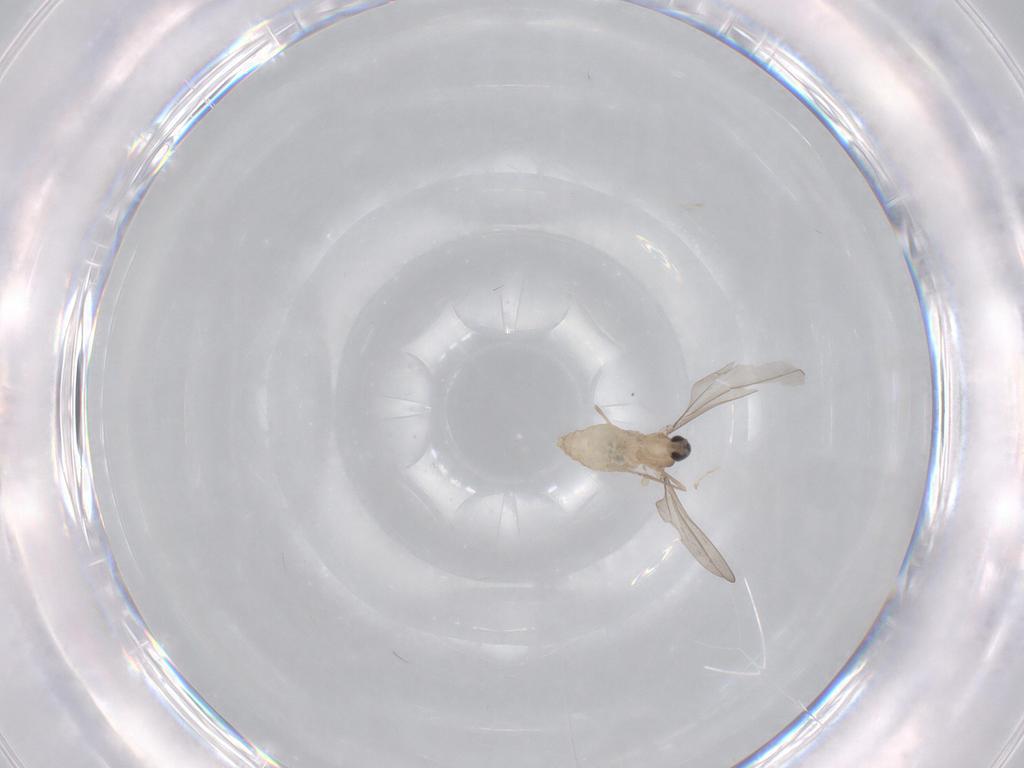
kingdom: Animalia
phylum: Arthropoda
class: Insecta
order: Diptera
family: Cecidomyiidae
